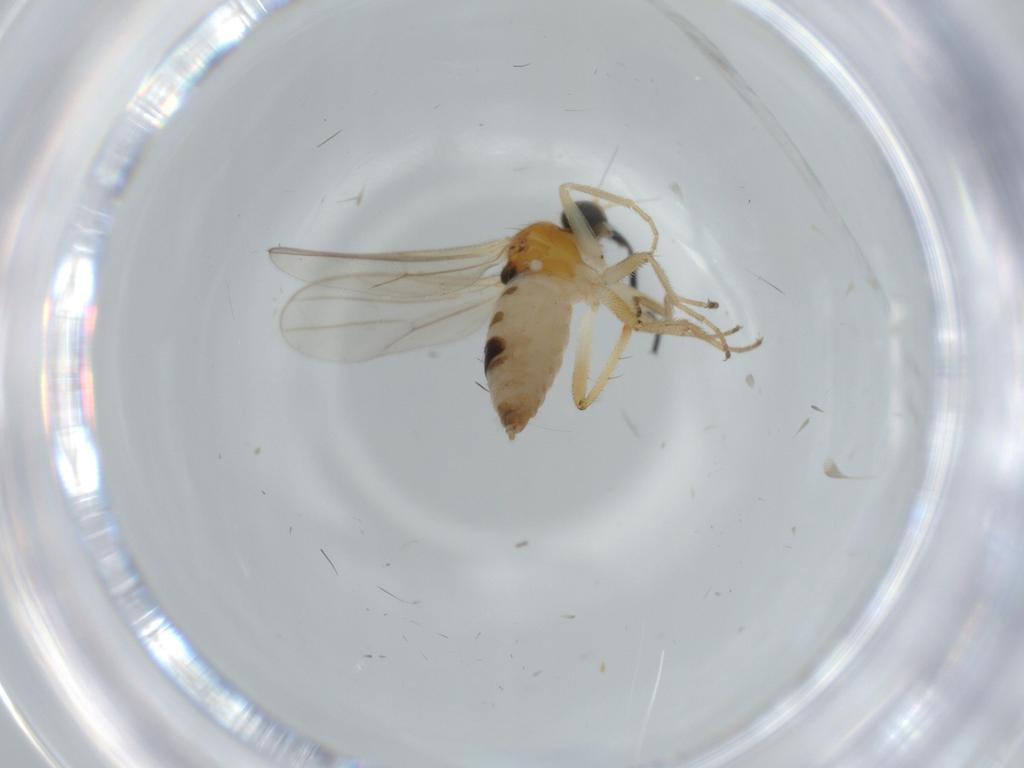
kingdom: Animalia
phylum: Arthropoda
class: Insecta
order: Diptera
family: Hybotidae
